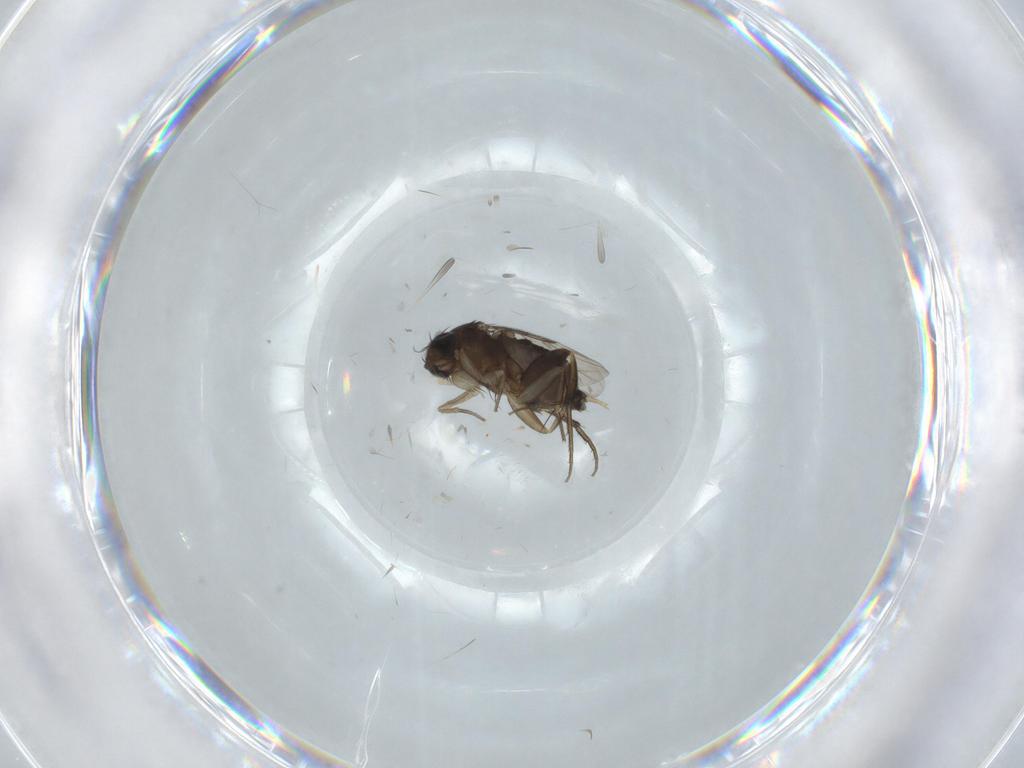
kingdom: Animalia
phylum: Arthropoda
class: Insecta
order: Diptera
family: Phoridae
